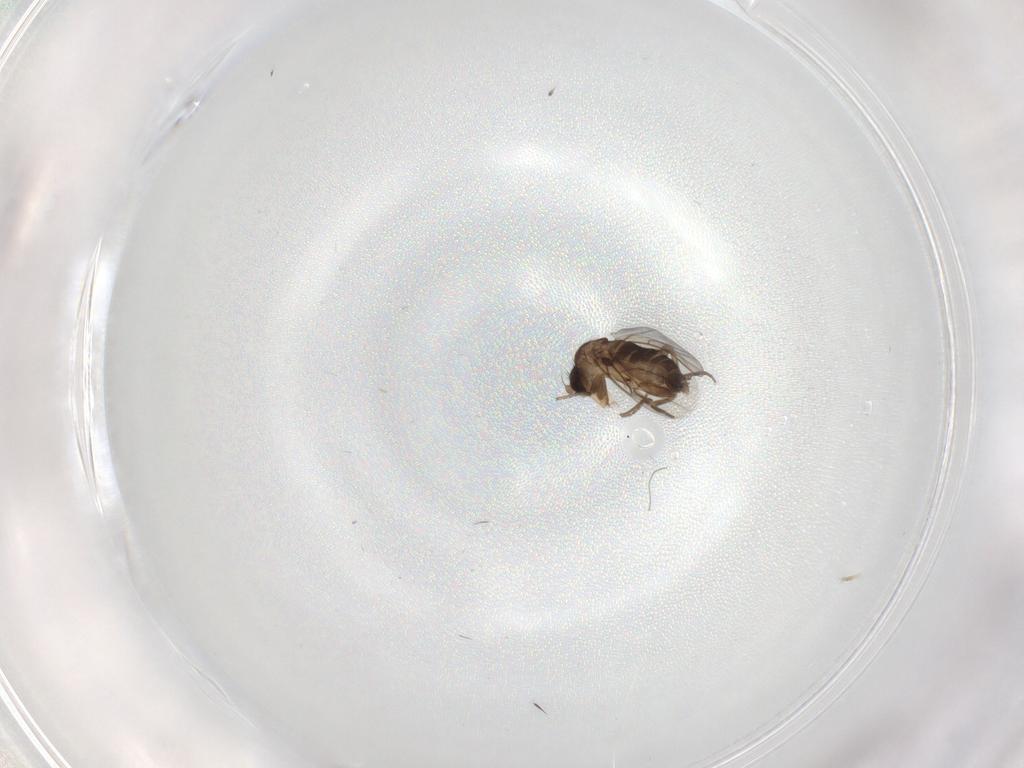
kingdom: Animalia
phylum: Arthropoda
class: Insecta
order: Diptera
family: Phoridae
